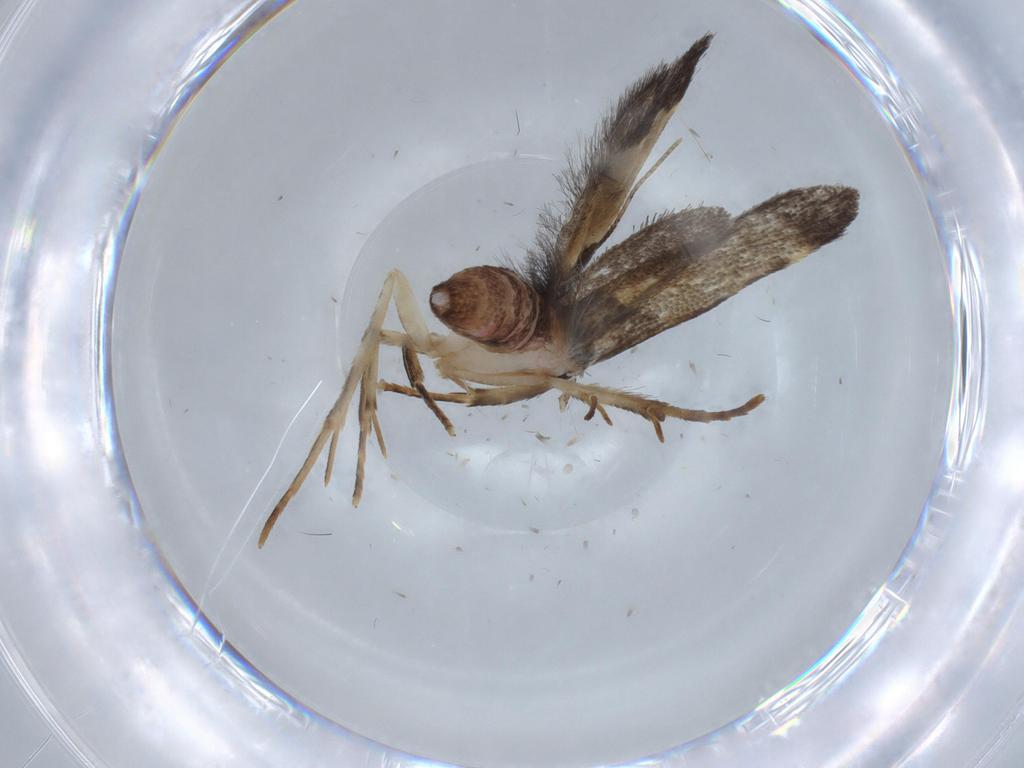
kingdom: Animalia
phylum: Arthropoda
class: Insecta
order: Lepidoptera
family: Cosmopterigidae
